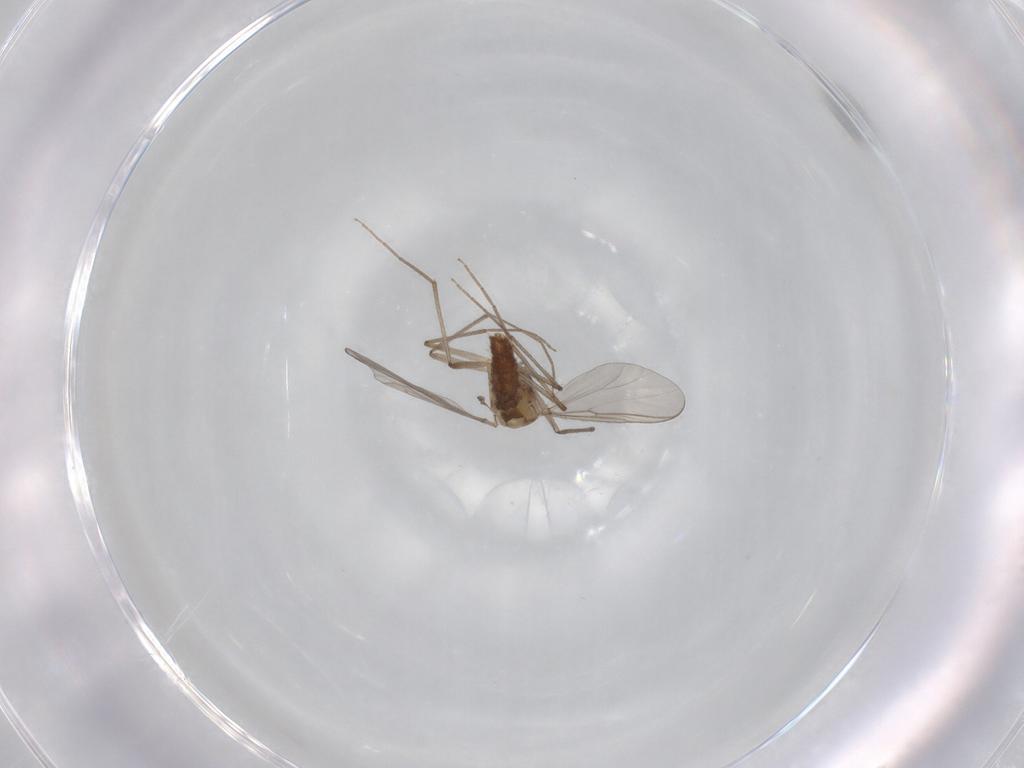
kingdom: Animalia
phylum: Arthropoda
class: Insecta
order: Diptera
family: Chironomidae
